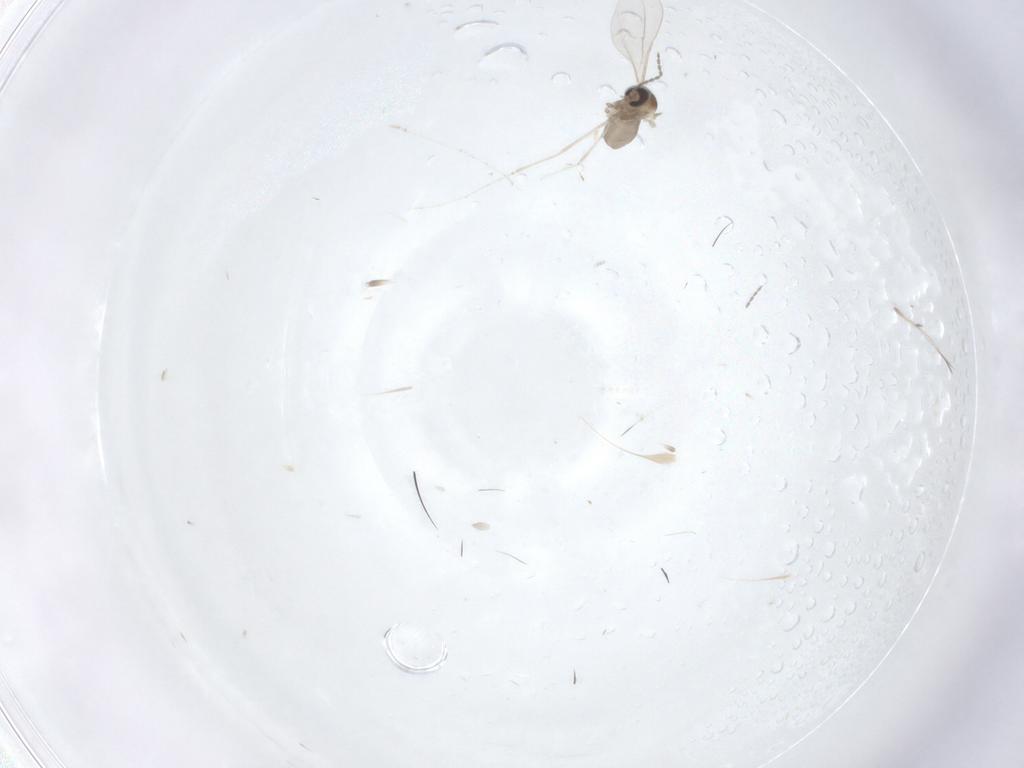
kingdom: Animalia
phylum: Arthropoda
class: Insecta
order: Diptera
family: Cecidomyiidae
